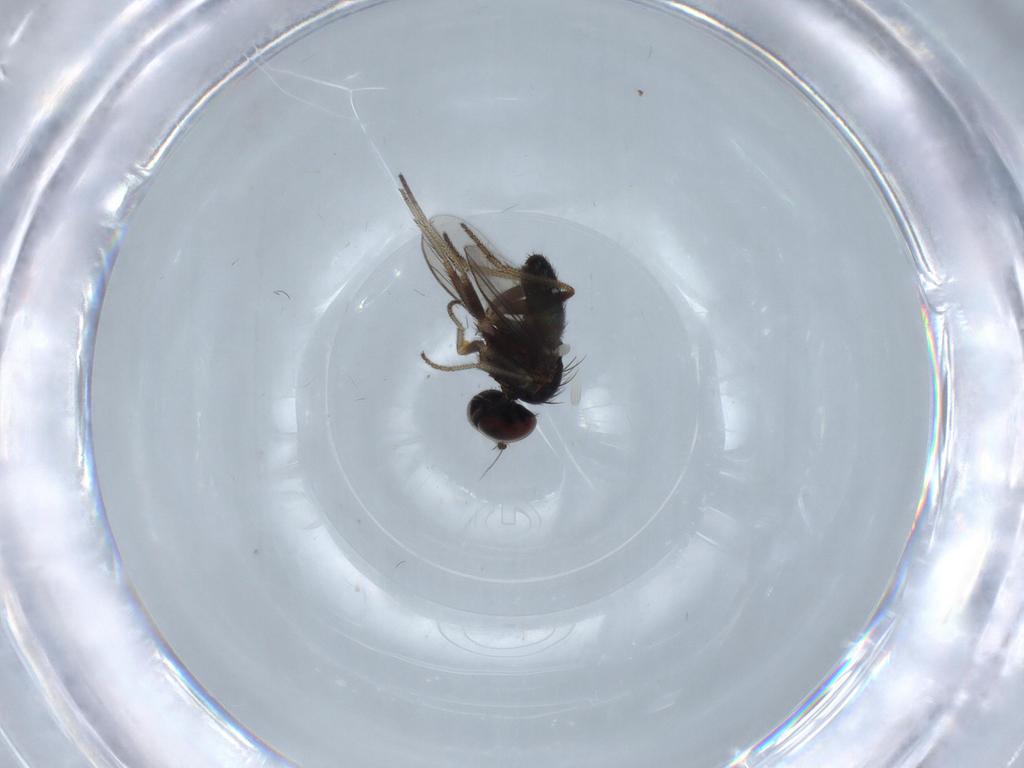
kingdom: Animalia
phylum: Arthropoda
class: Insecta
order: Diptera
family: Dolichopodidae
